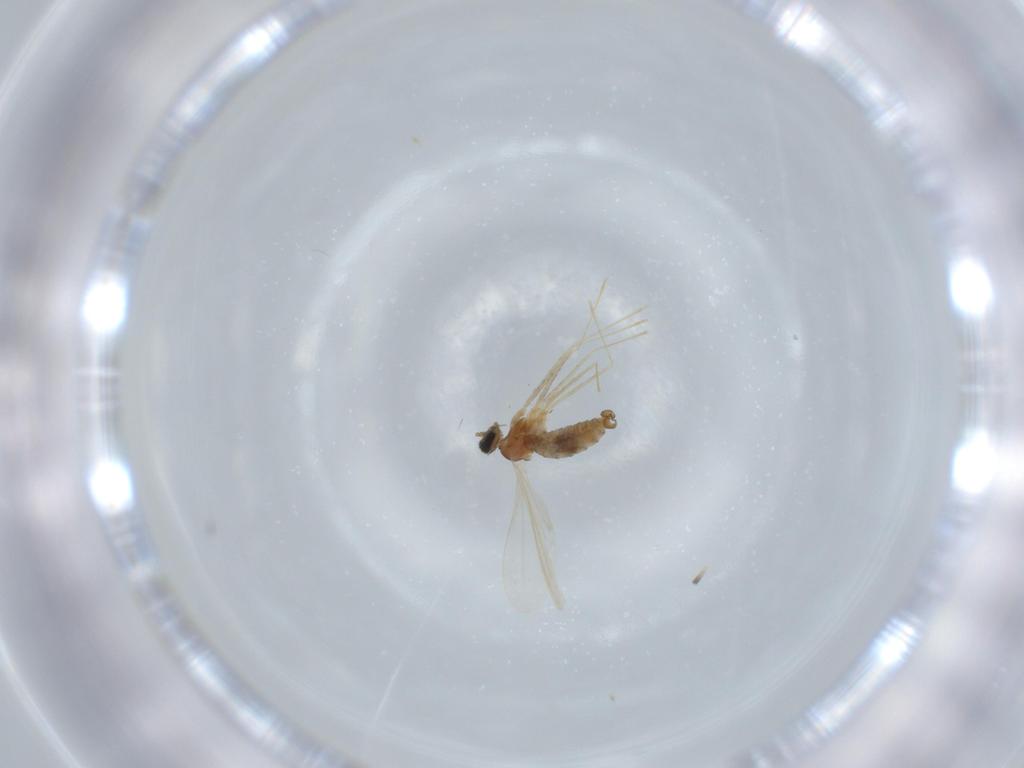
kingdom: Animalia
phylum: Arthropoda
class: Insecta
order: Diptera
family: Cecidomyiidae
